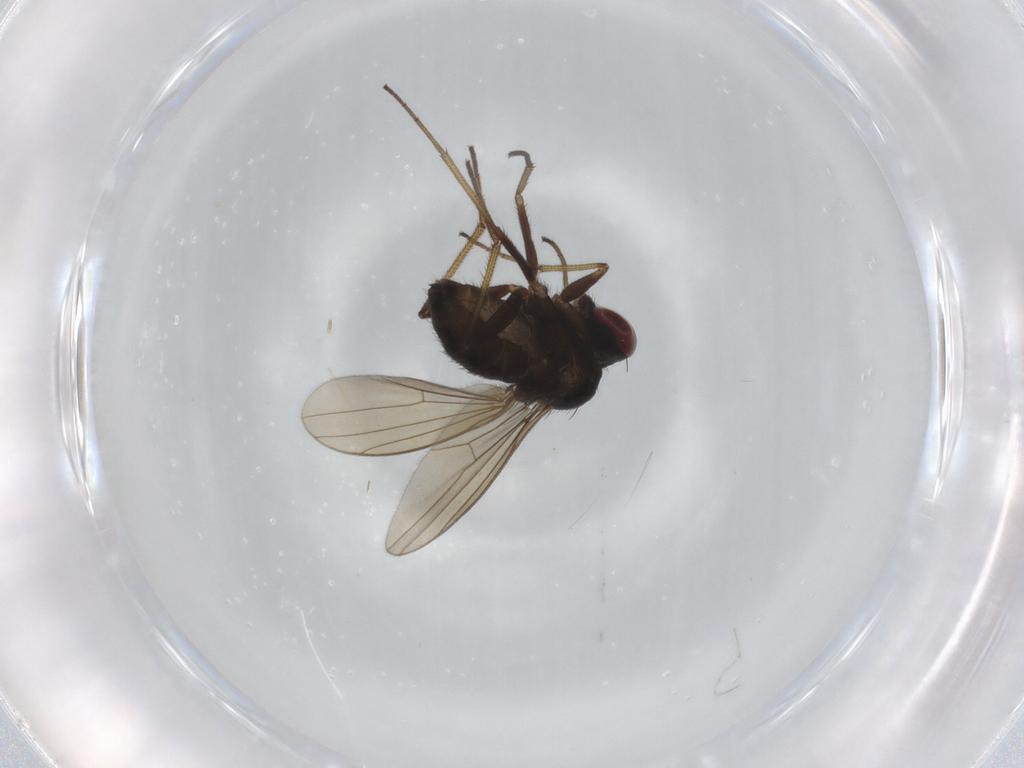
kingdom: Animalia
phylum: Arthropoda
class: Insecta
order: Diptera
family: Dolichopodidae
